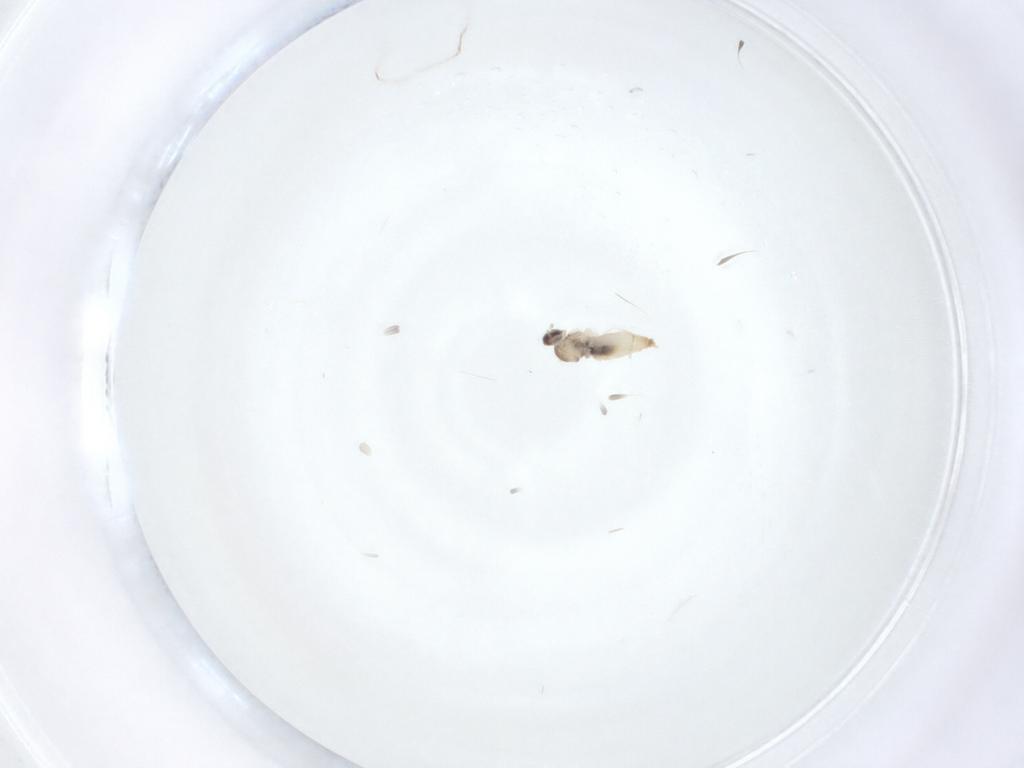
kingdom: Animalia
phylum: Arthropoda
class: Insecta
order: Diptera
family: Cecidomyiidae
